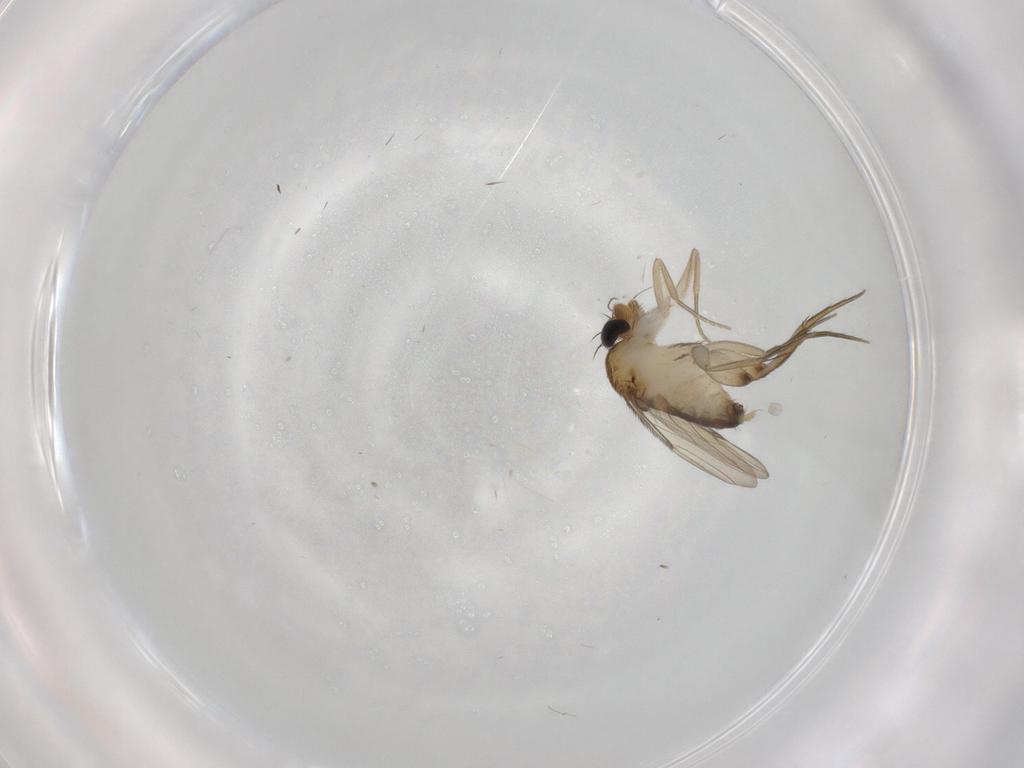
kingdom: Animalia
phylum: Arthropoda
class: Insecta
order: Diptera
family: Phoridae
